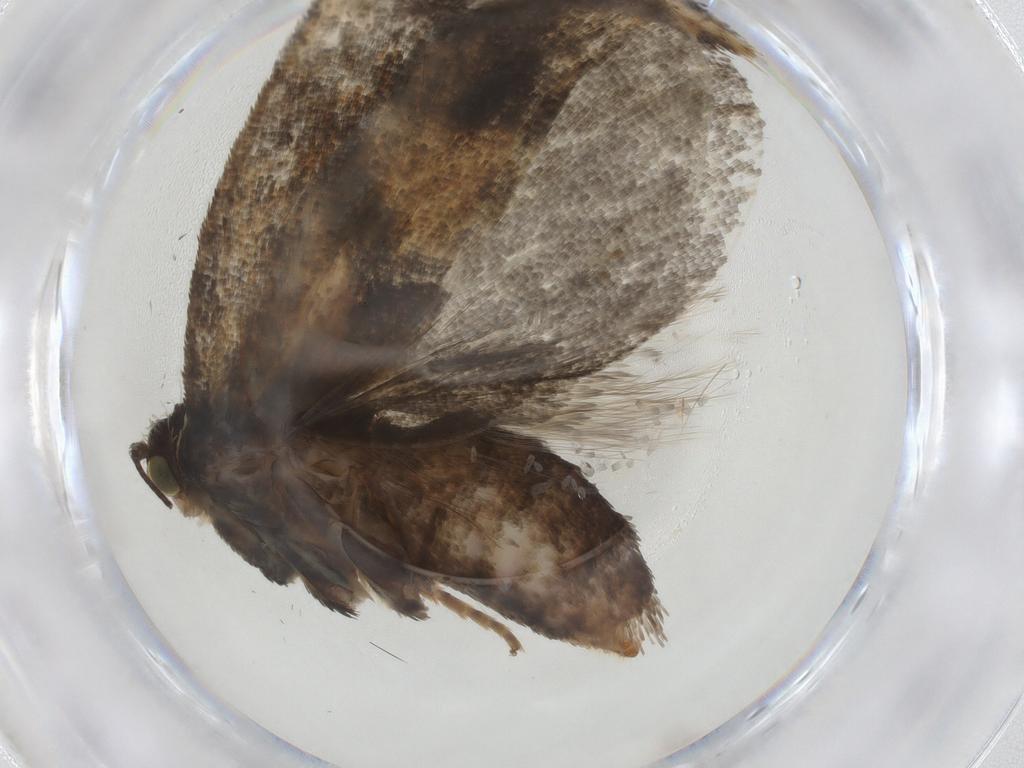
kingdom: Animalia
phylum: Arthropoda
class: Insecta
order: Lepidoptera
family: Tortricidae
